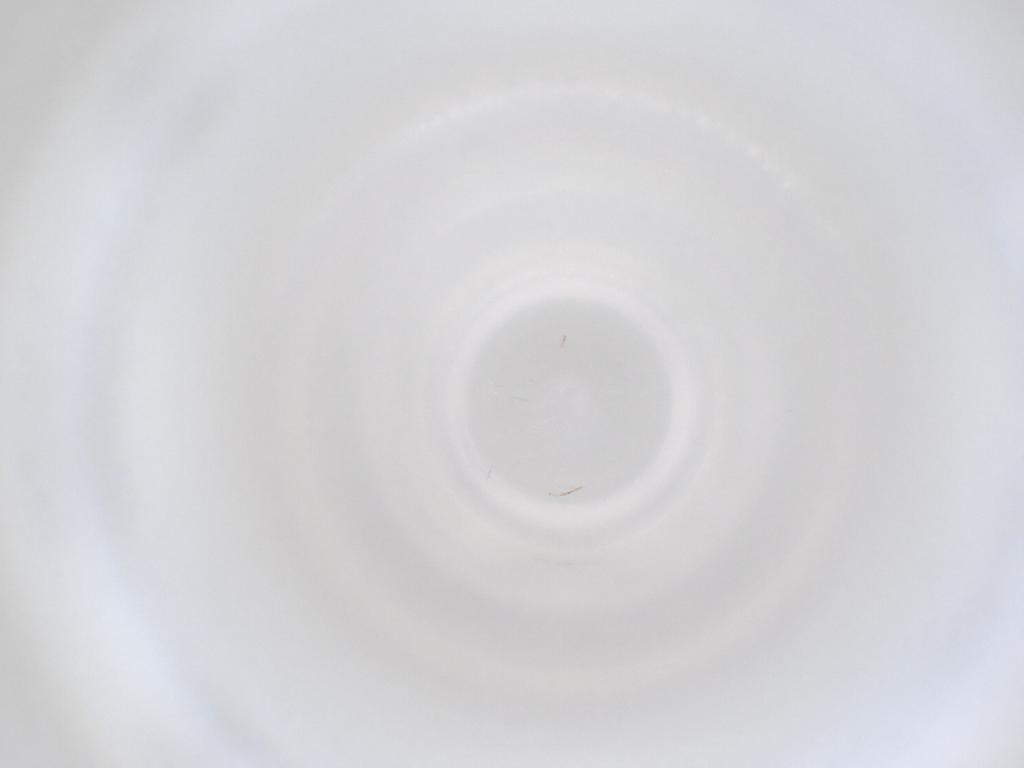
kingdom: Animalia
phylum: Arthropoda
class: Insecta
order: Diptera
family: Cecidomyiidae
